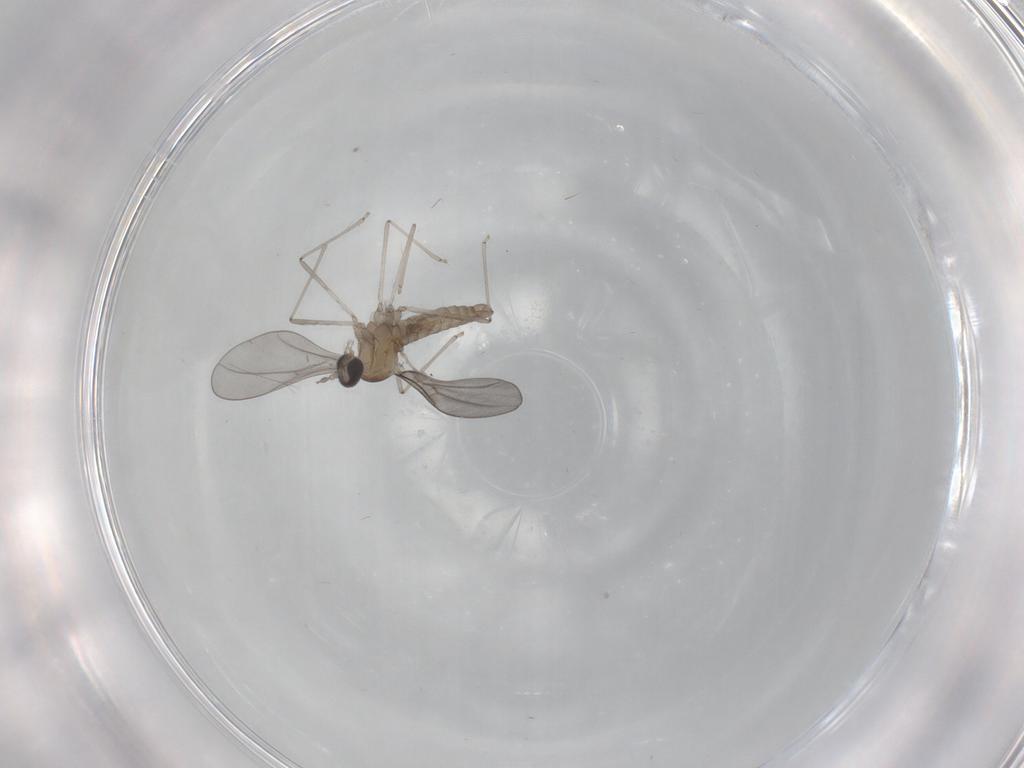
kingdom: Animalia
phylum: Arthropoda
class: Insecta
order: Diptera
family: Cecidomyiidae
